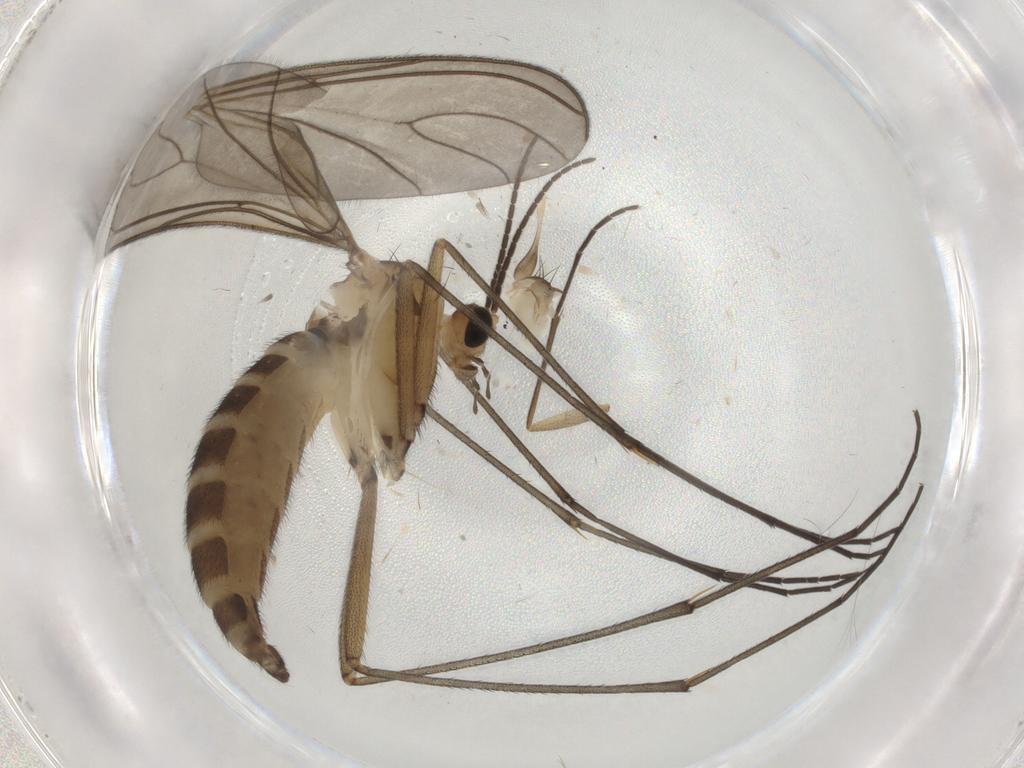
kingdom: Animalia
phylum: Arthropoda
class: Insecta
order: Diptera
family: Sciaridae
